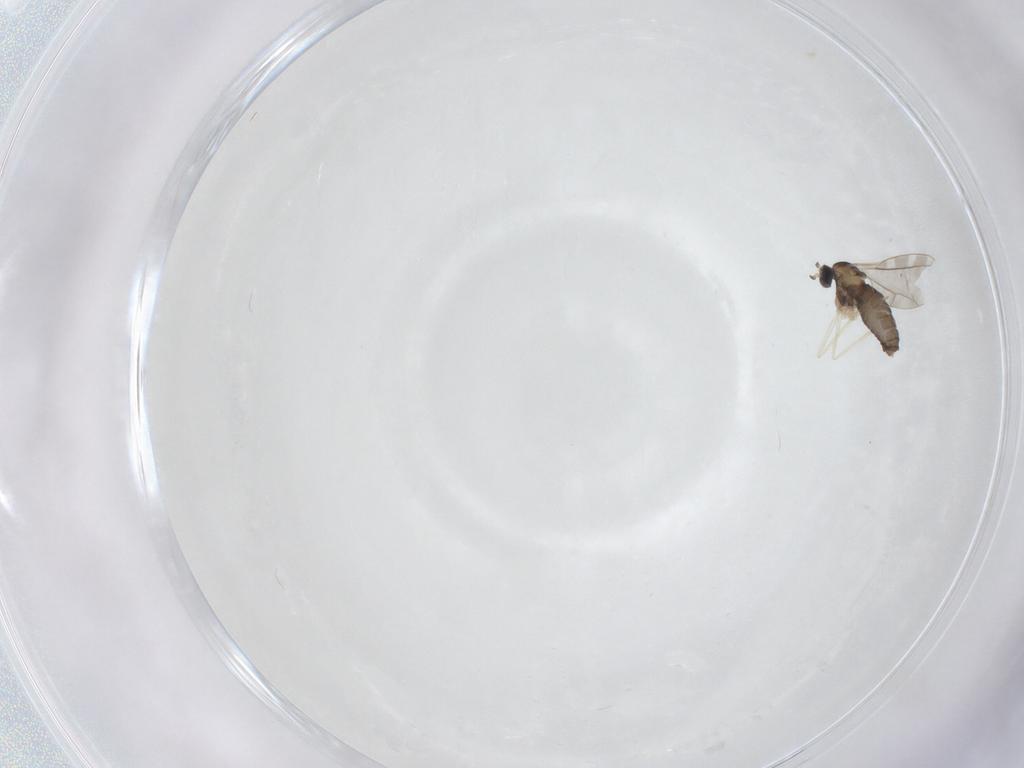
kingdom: Animalia
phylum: Arthropoda
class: Insecta
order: Diptera
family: Cecidomyiidae
